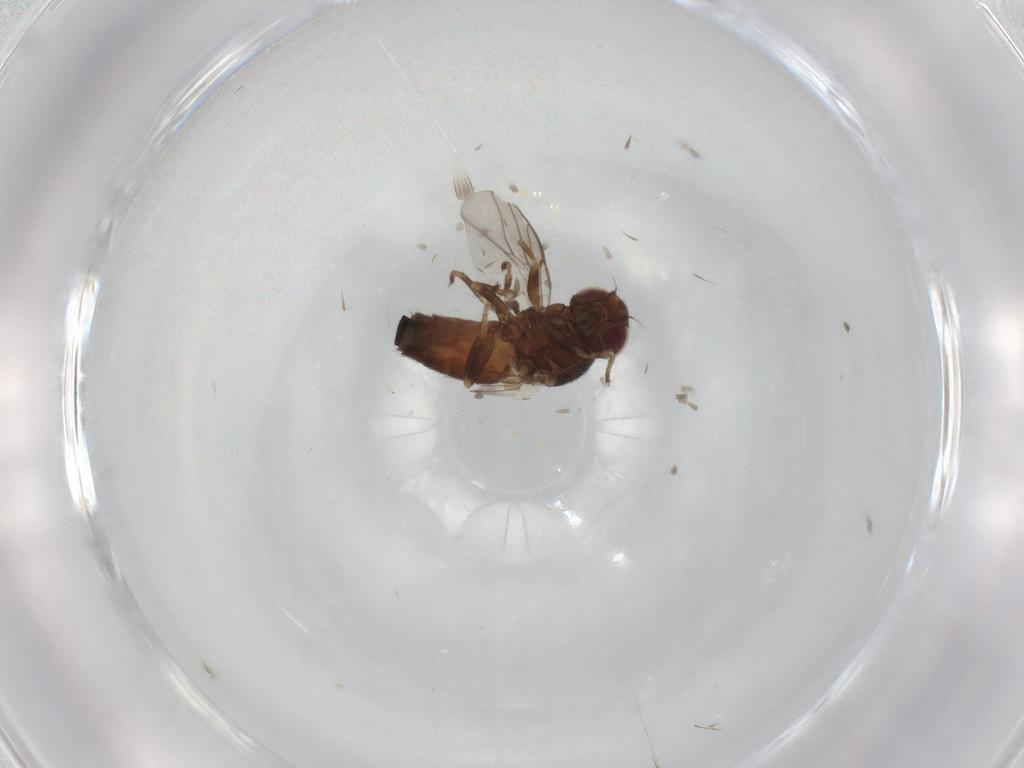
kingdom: Animalia
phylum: Arthropoda
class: Insecta
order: Diptera
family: Chloropidae
